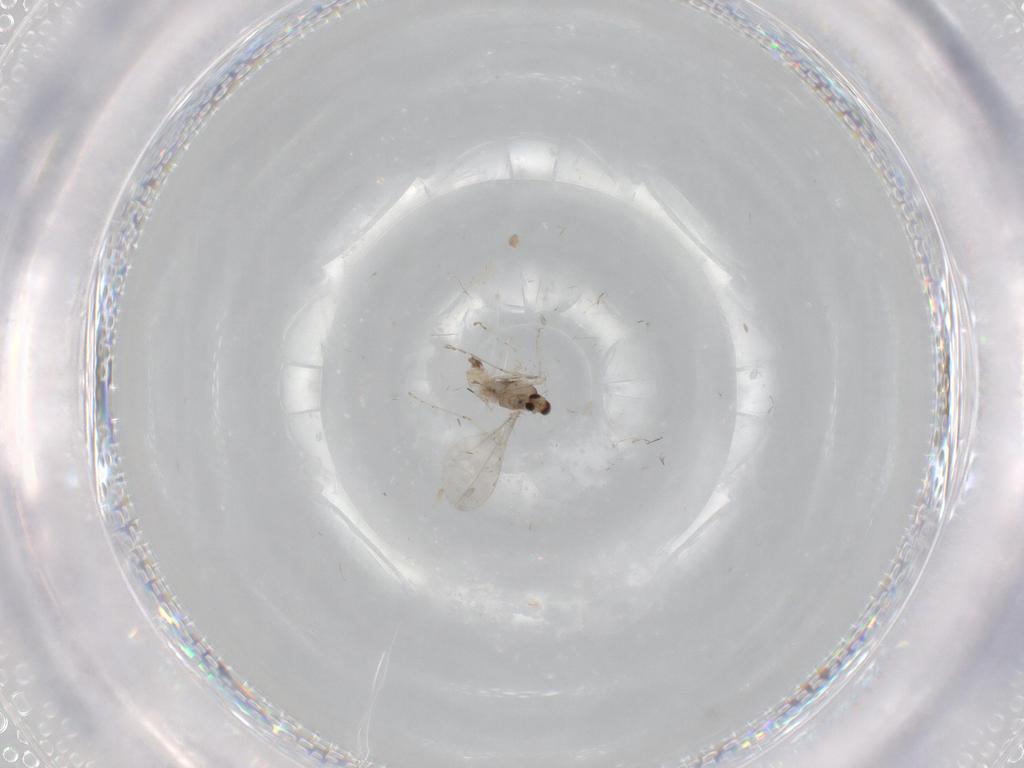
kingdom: Animalia
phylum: Arthropoda
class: Insecta
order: Diptera
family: Cecidomyiidae
